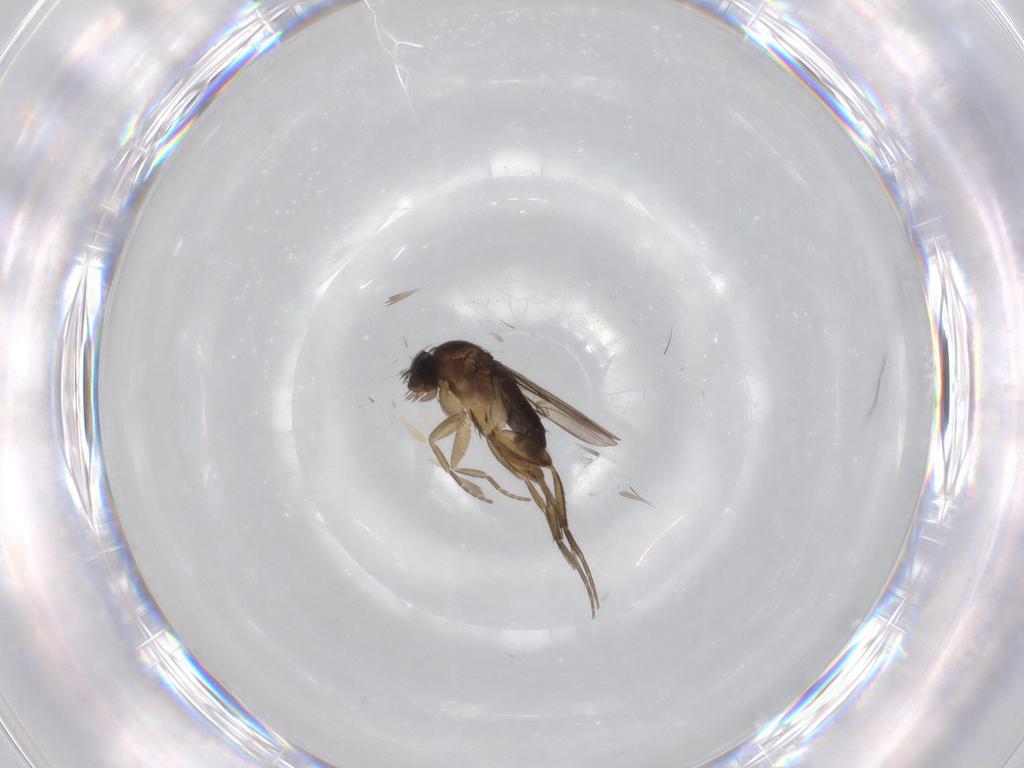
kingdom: Animalia
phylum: Arthropoda
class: Insecta
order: Diptera
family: Phoridae
